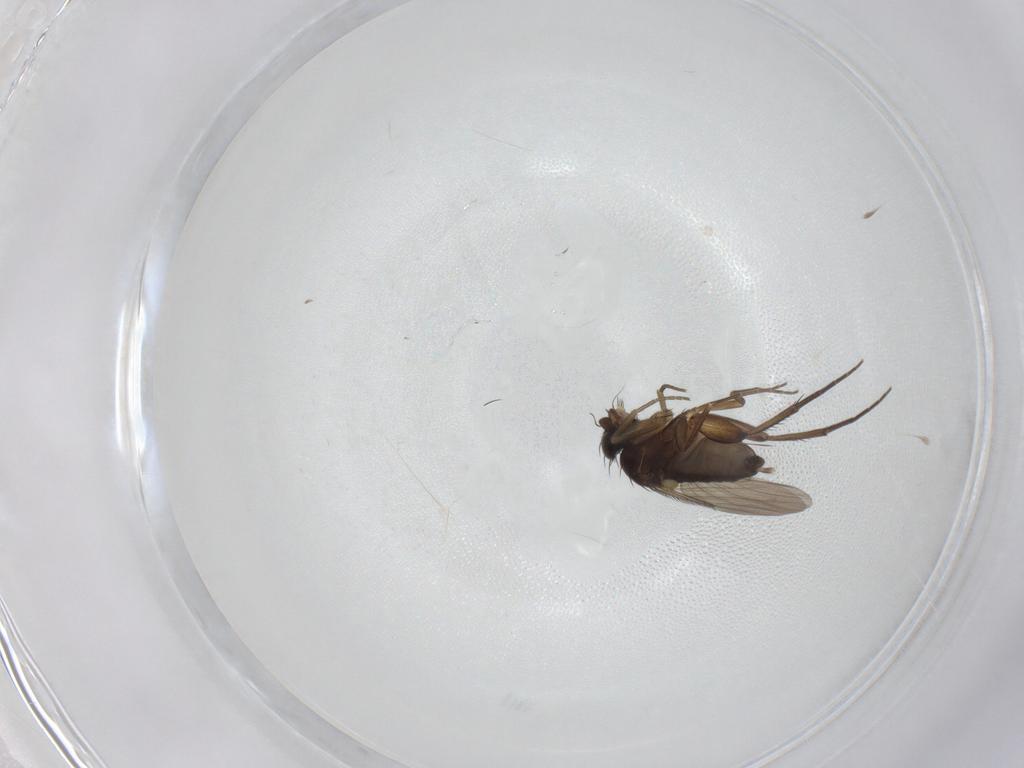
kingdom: Animalia
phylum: Arthropoda
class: Insecta
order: Diptera
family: Phoridae
